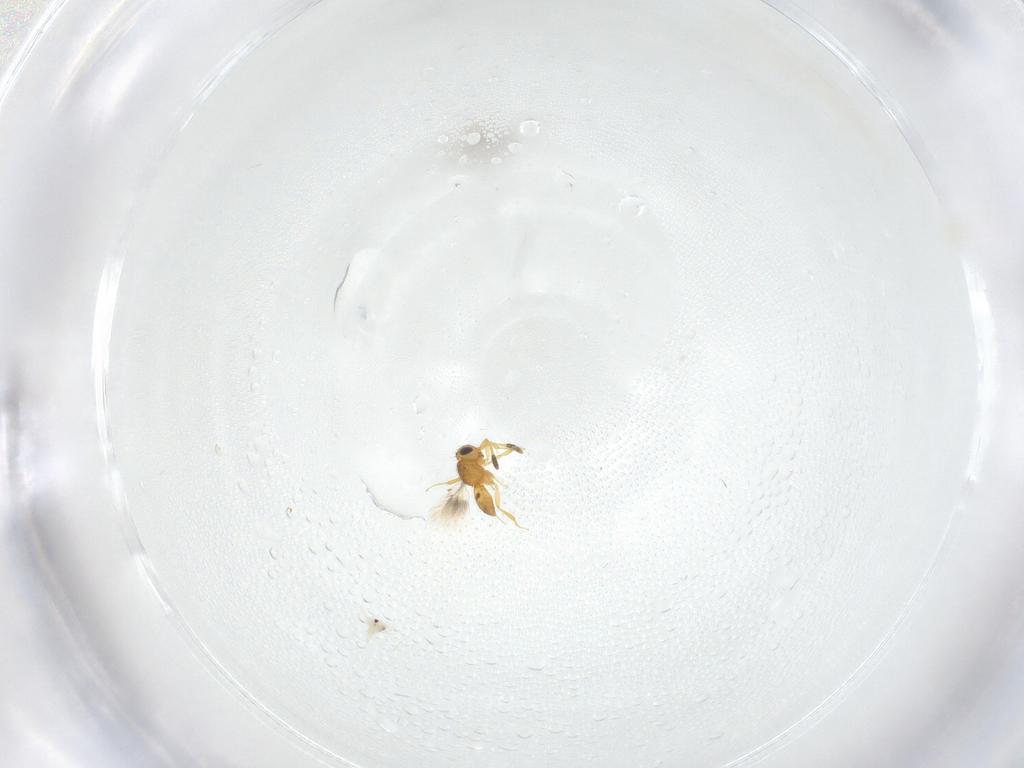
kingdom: Animalia
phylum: Arthropoda
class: Insecta
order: Hymenoptera
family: Scelionidae
